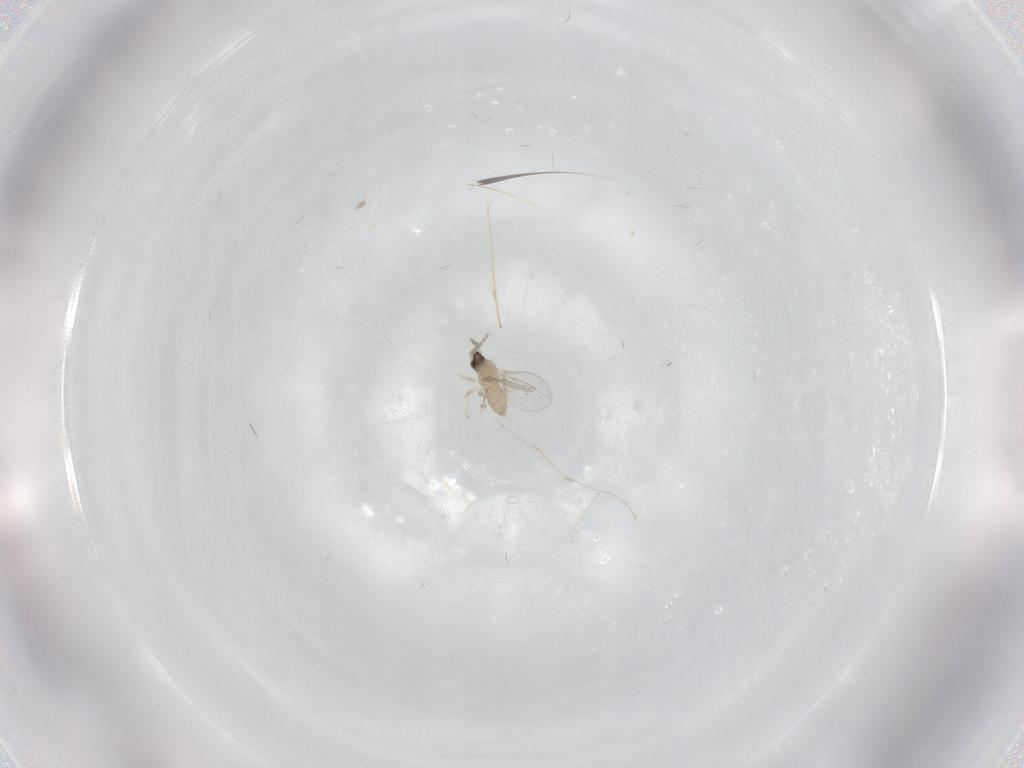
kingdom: Animalia
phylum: Arthropoda
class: Insecta
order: Diptera
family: Cecidomyiidae
